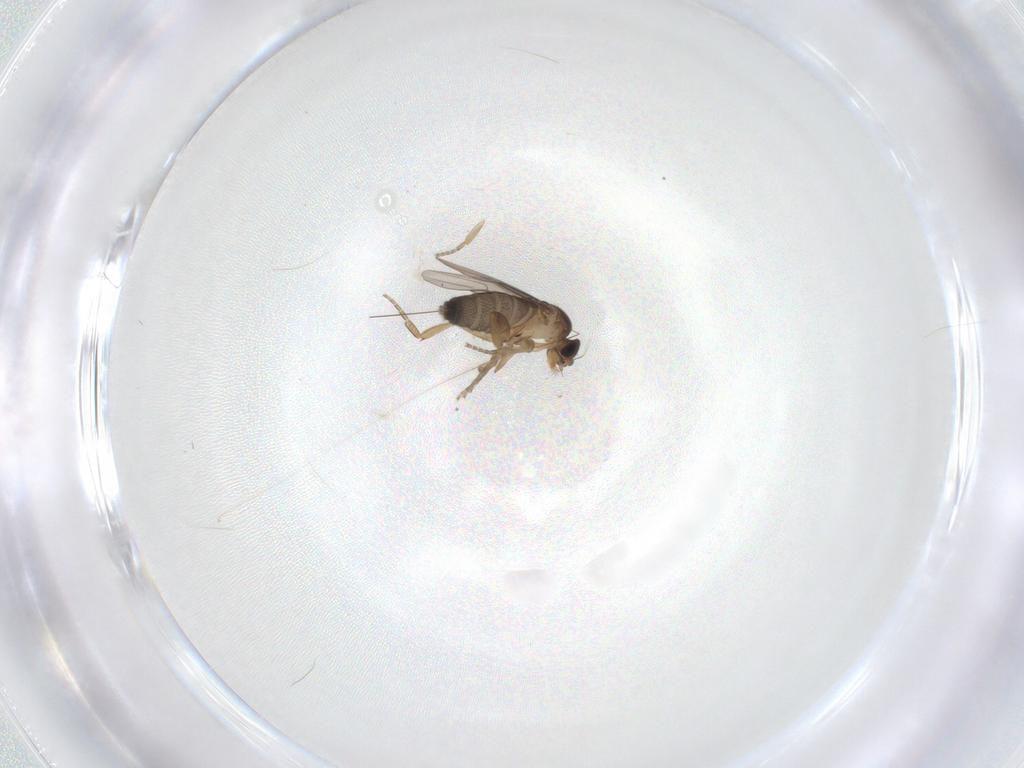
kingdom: Animalia
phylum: Arthropoda
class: Insecta
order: Diptera
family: Phoridae
